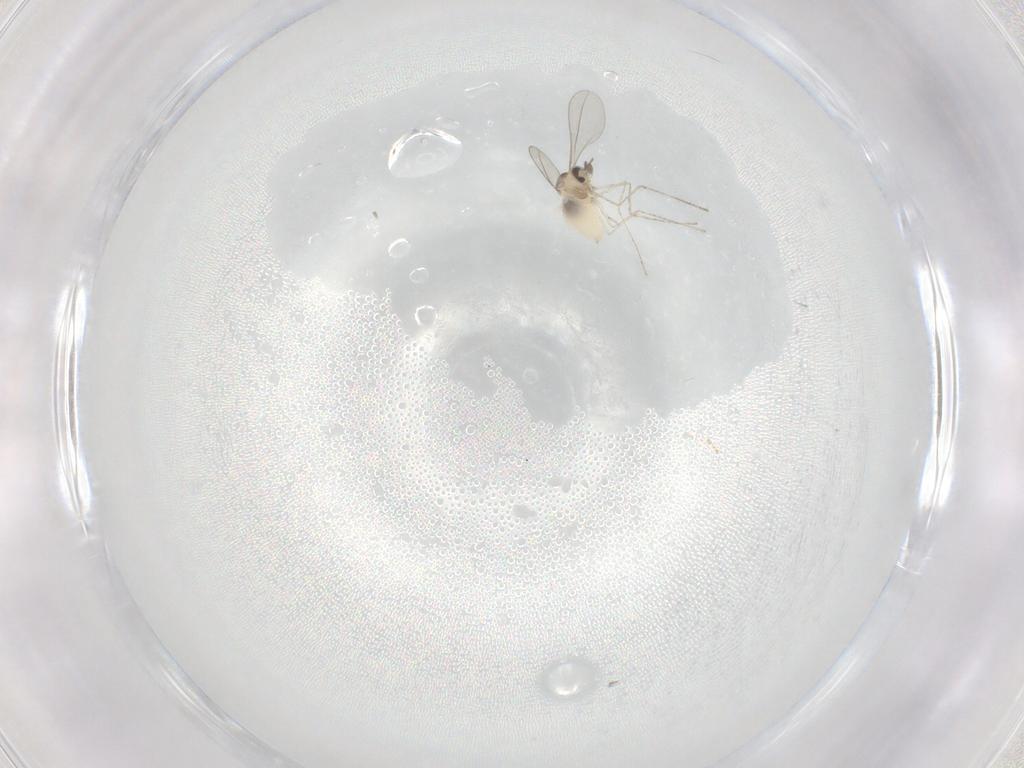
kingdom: Animalia
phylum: Arthropoda
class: Insecta
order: Diptera
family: Cecidomyiidae
